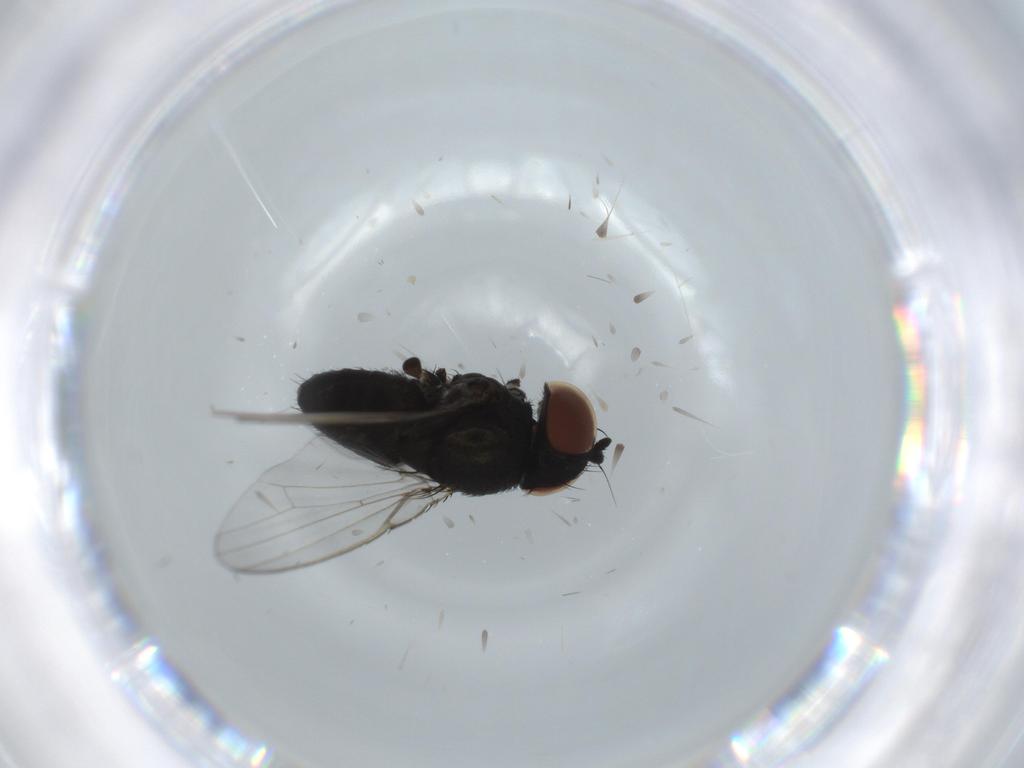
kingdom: Animalia
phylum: Arthropoda
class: Insecta
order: Diptera
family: Milichiidae
